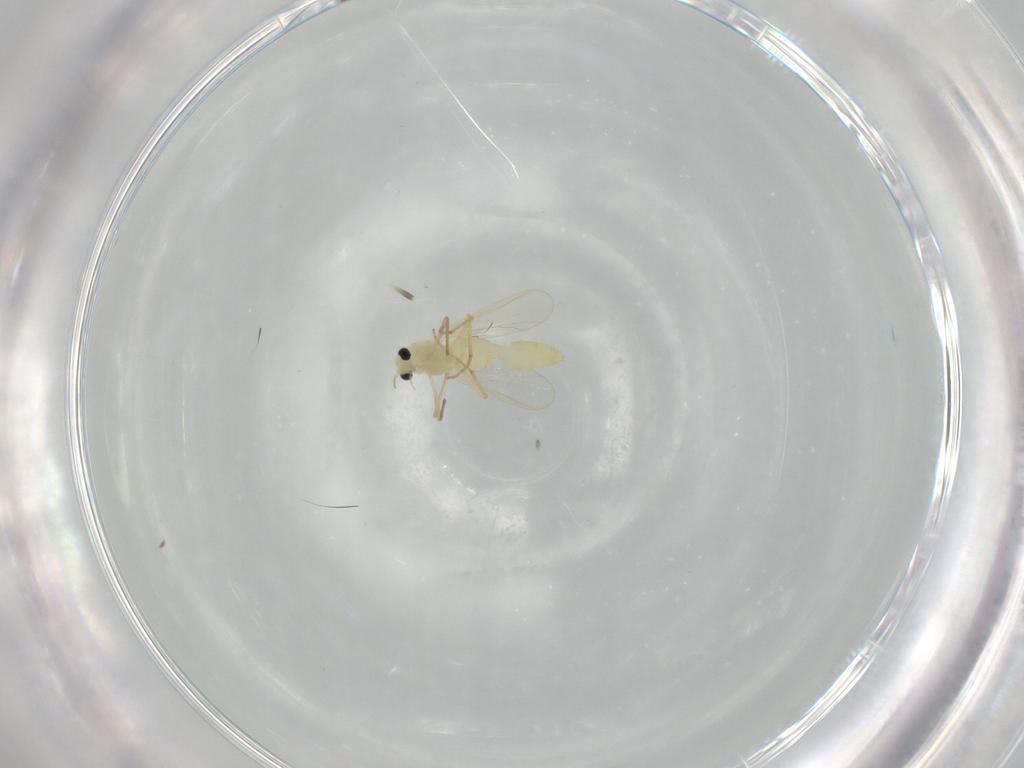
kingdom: Animalia
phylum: Arthropoda
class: Insecta
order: Diptera
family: Chironomidae
